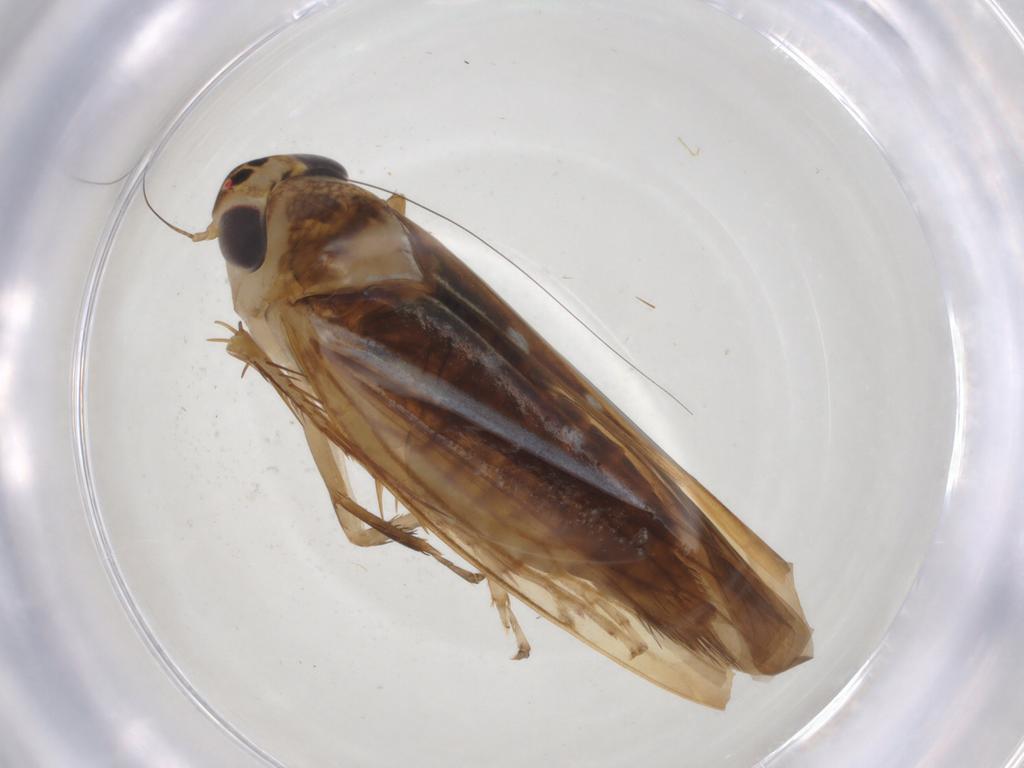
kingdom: Animalia
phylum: Arthropoda
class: Insecta
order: Hemiptera
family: Cicadellidae
